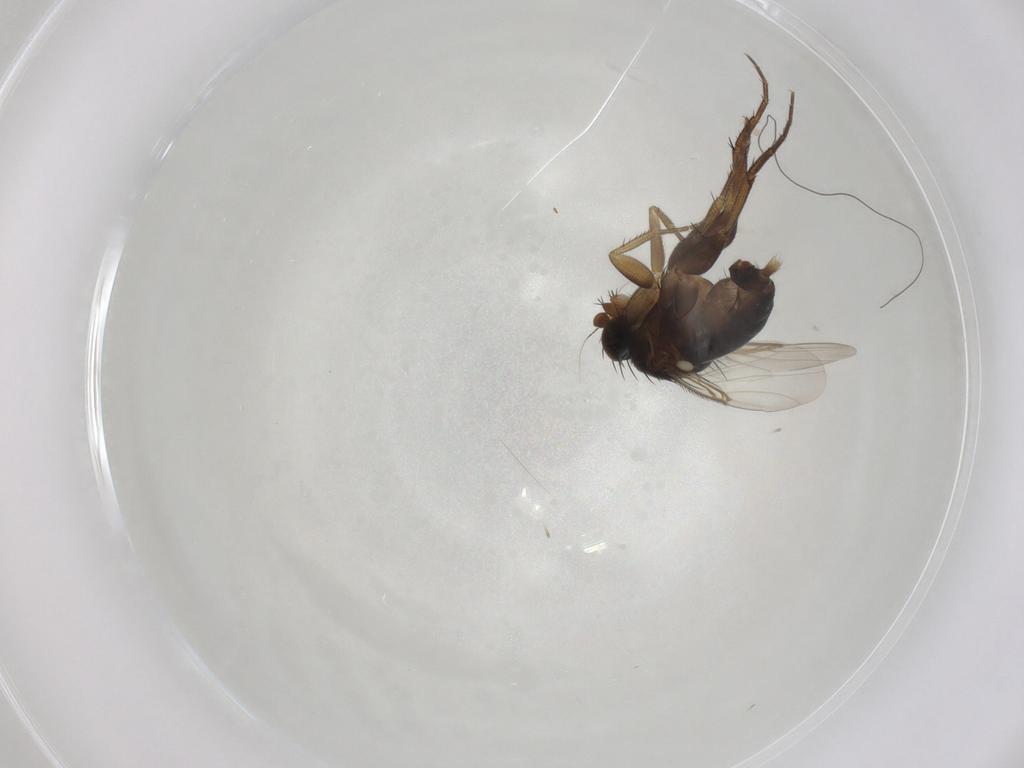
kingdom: Animalia
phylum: Arthropoda
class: Insecta
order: Diptera
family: Phoridae
